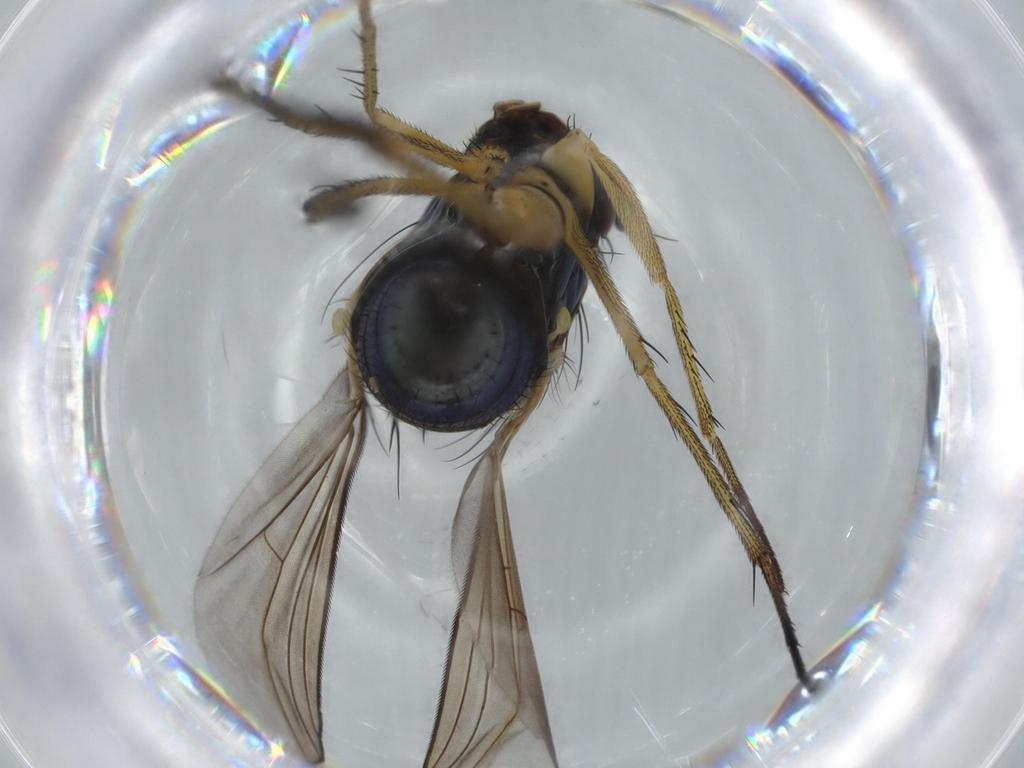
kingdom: Animalia
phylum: Arthropoda
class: Insecta
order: Diptera
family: Dolichopodidae
